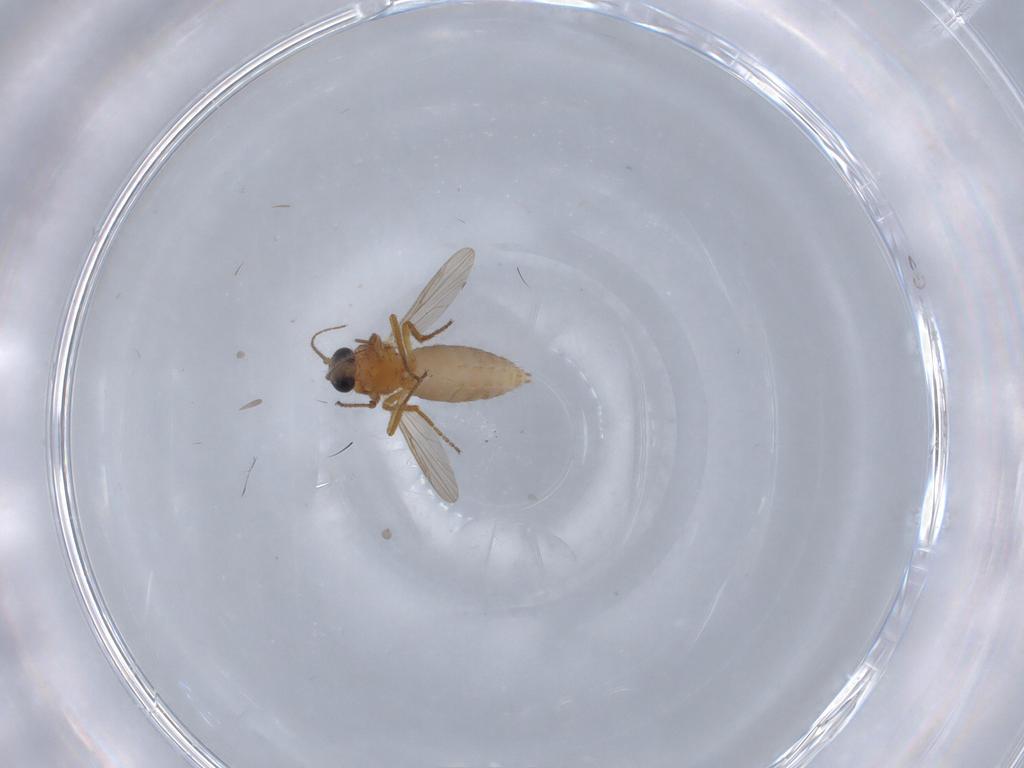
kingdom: Animalia
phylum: Arthropoda
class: Insecta
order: Diptera
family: Ceratopogonidae
